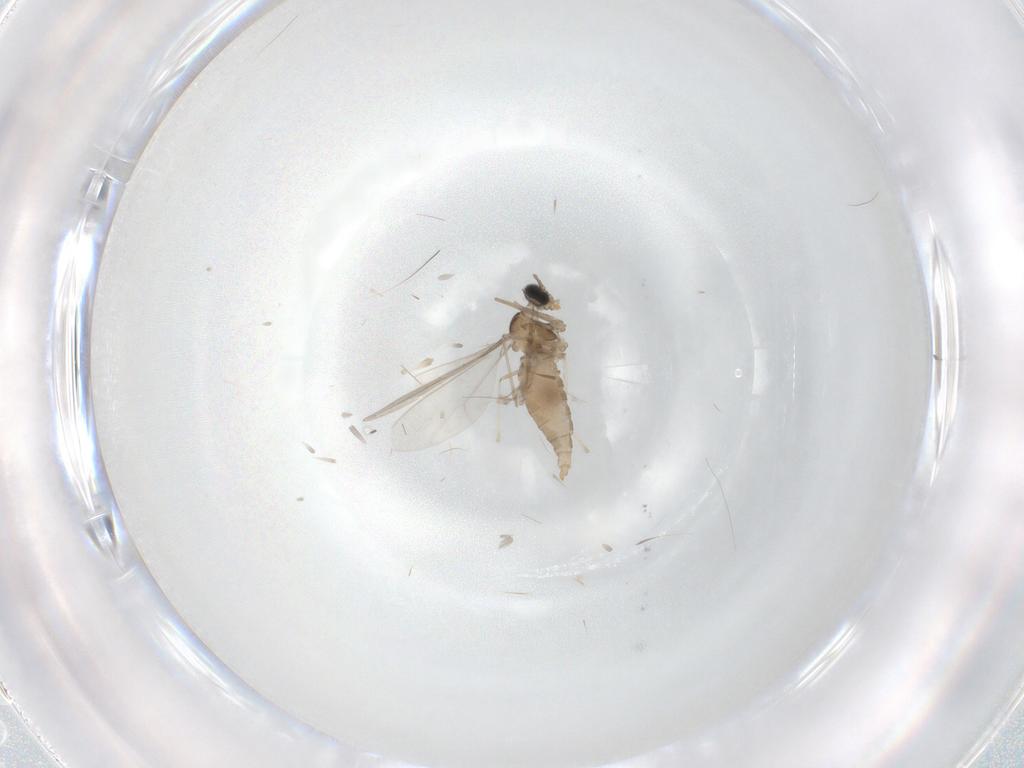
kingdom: Animalia
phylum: Arthropoda
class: Insecta
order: Diptera
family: Cecidomyiidae
